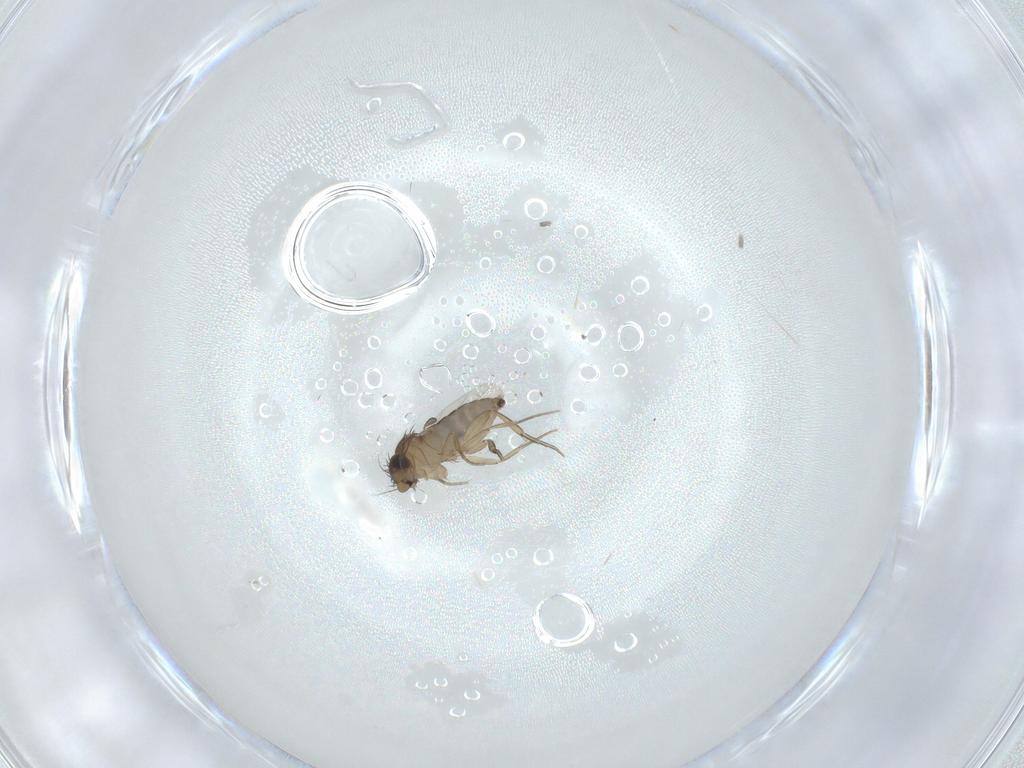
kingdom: Animalia
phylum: Arthropoda
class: Insecta
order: Diptera
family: Phoridae
